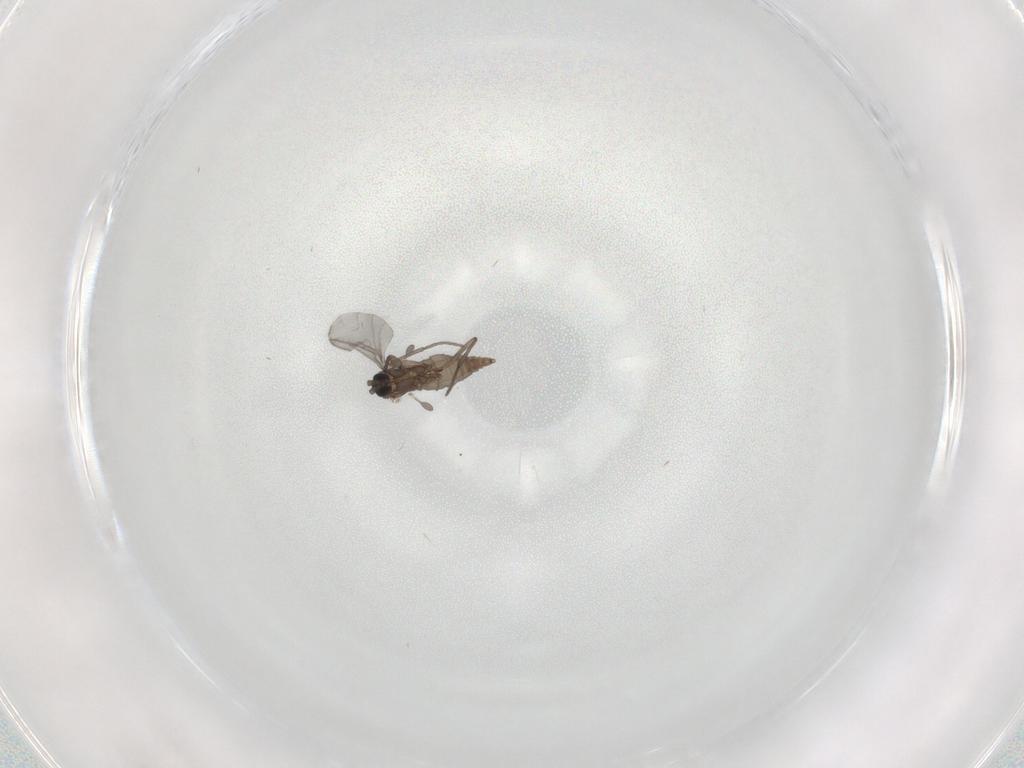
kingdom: Animalia
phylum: Arthropoda
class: Insecta
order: Diptera
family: Sciaridae
